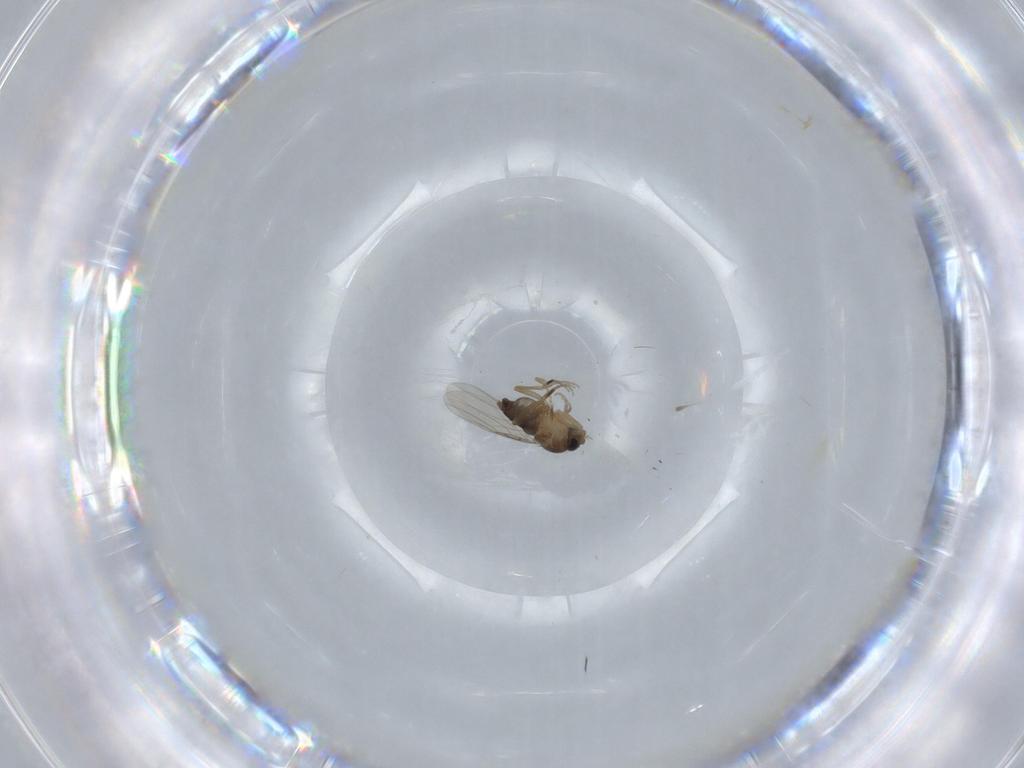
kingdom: Animalia
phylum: Arthropoda
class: Insecta
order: Diptera
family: Phoridae
